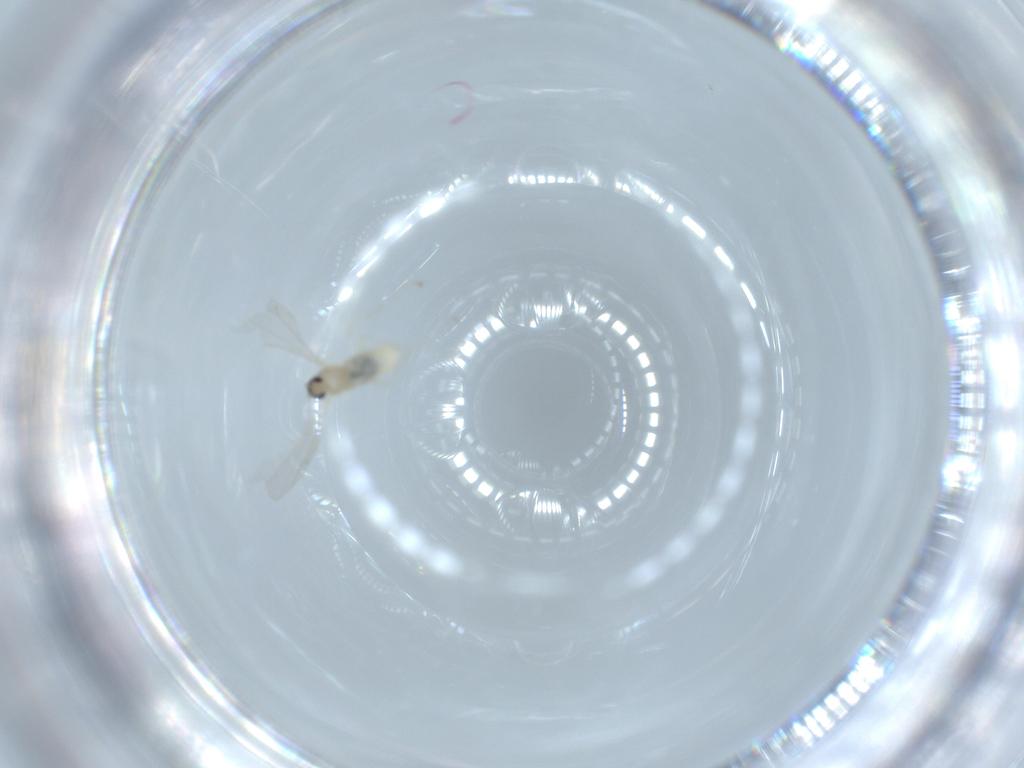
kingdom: Animalia
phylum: Arthropoda
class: Insecta
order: Diptera
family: Cecidomyiidae
